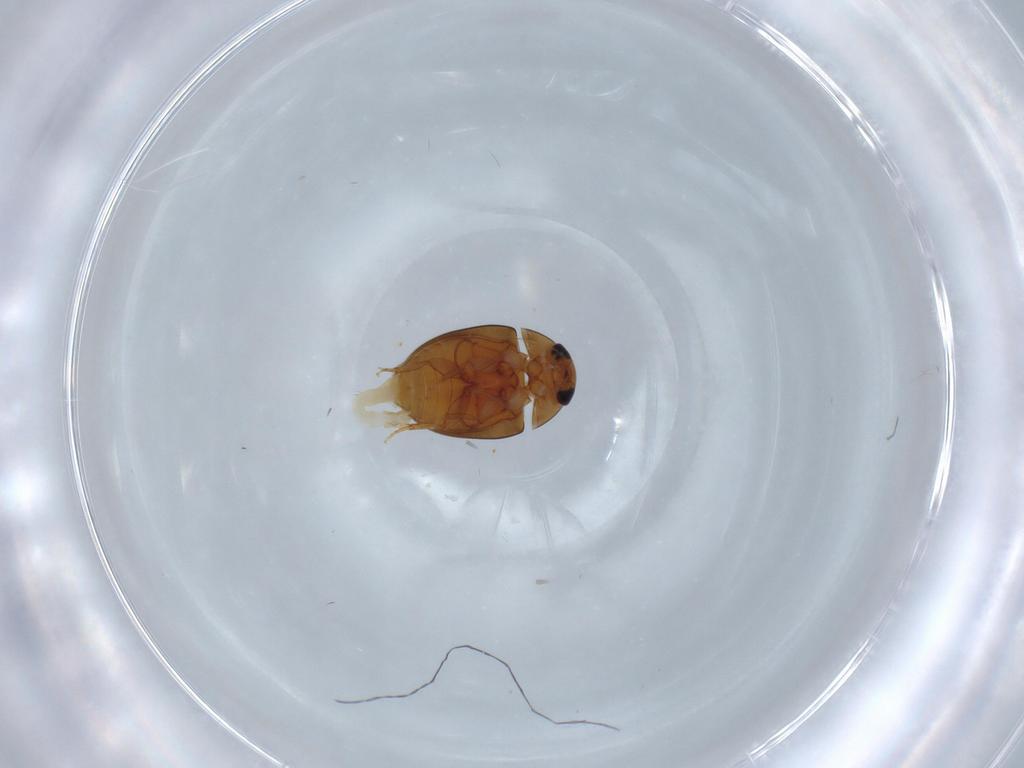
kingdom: Animalia
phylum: Arthropoda
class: Insecta
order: Coleoptera
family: Phalacridae
